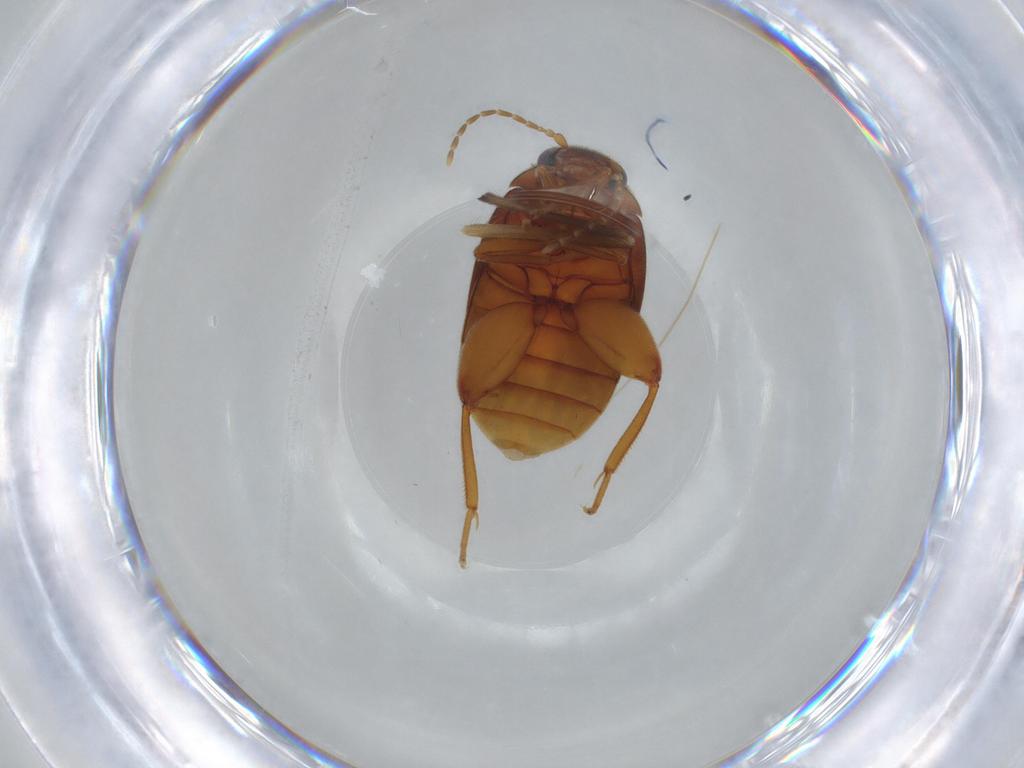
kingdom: Animalia
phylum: Arthropoda
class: Insecta
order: Coleoptera
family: Scirtidae
